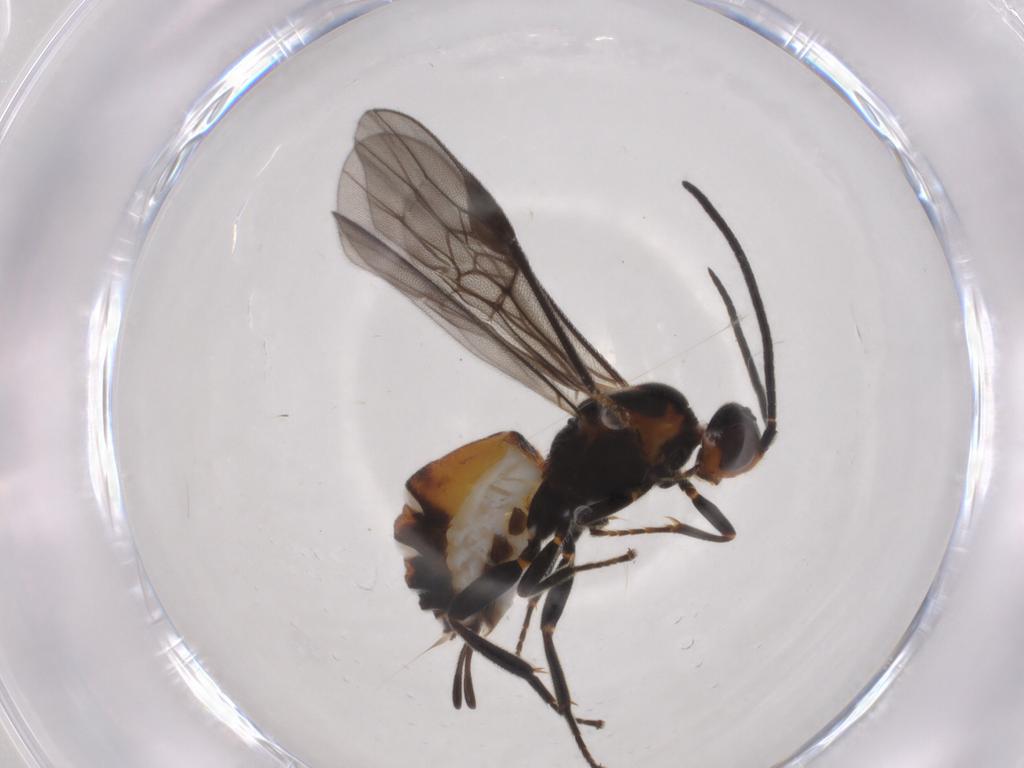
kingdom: Animalia
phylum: Arthropoda
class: Insecta
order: Hymenoptera
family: Braconidae
